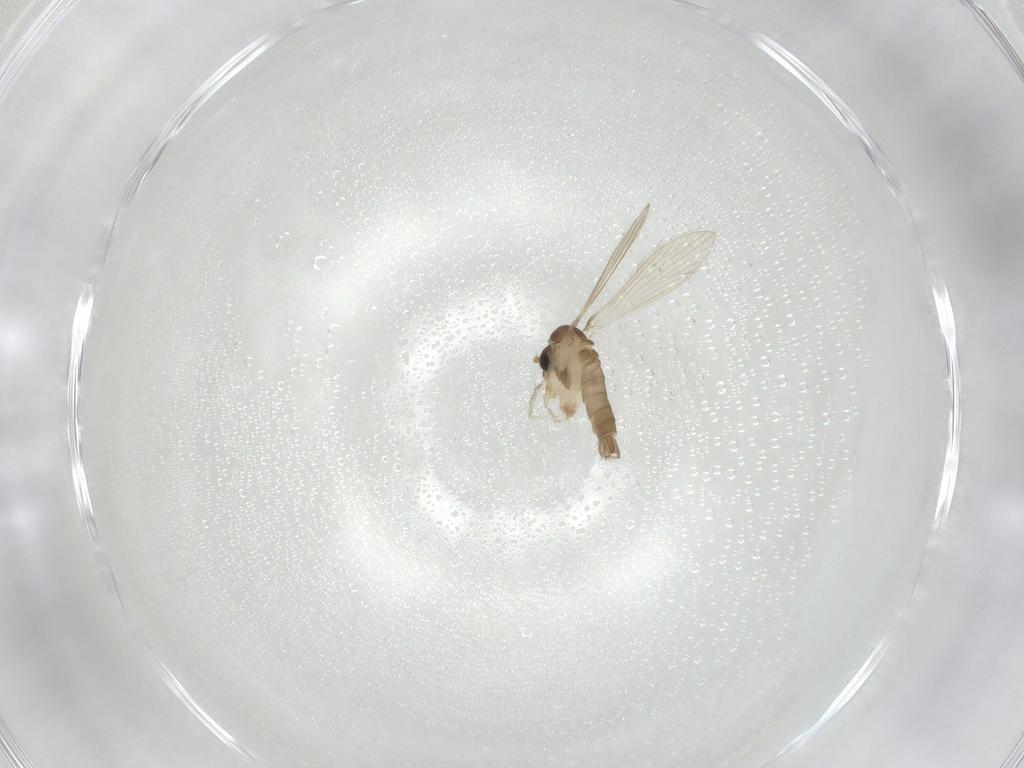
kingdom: Animalia
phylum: Arthropoda
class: Insecta
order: Diptera
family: Psychodidae
